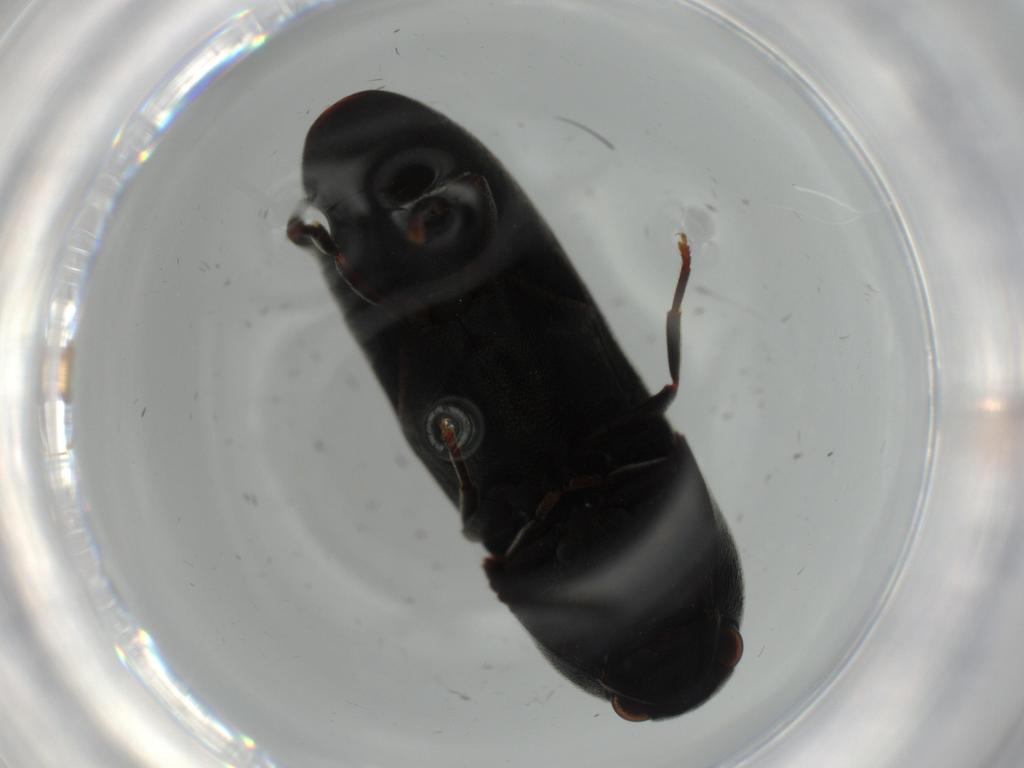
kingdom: Animalia
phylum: Arthropoda
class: Insecta
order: Coleoptera
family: Eucnemidae
